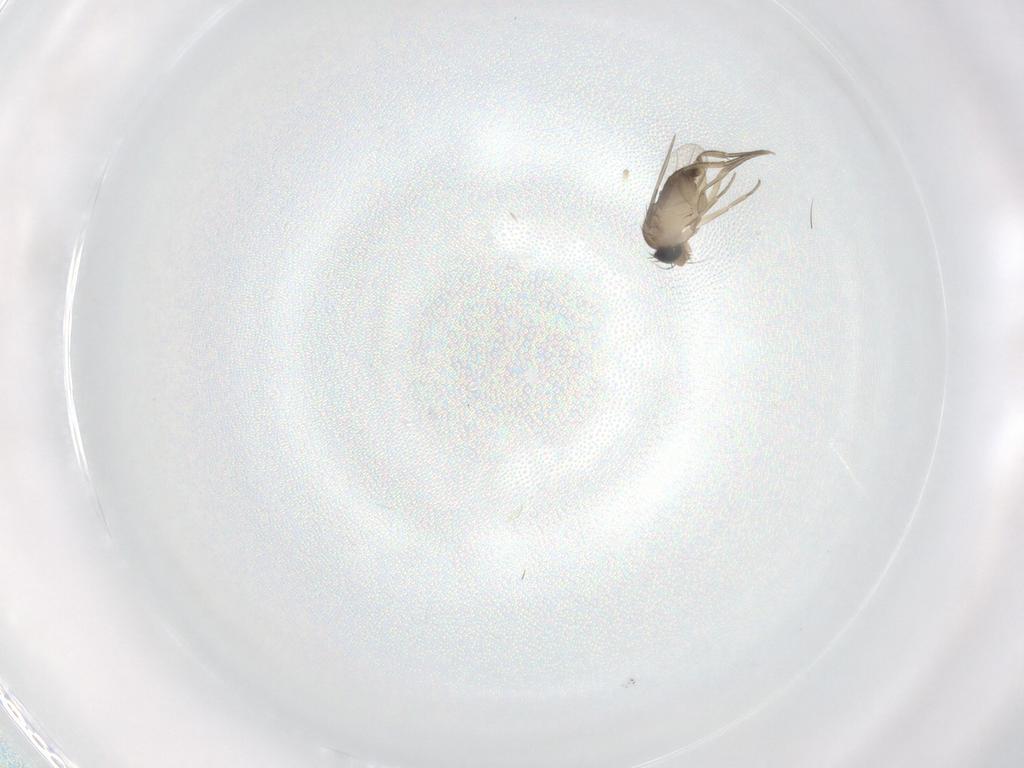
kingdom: Animalia
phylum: Arthropoda
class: Insecta
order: Diptera
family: Phoridae
